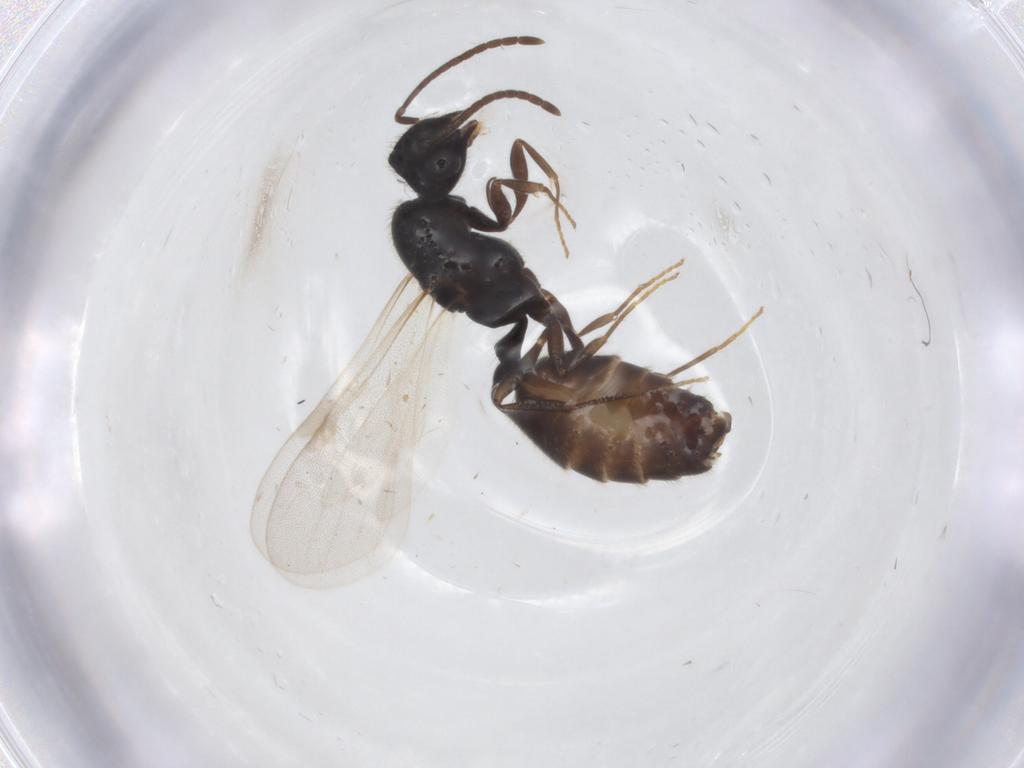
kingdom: Animalia
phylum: Arthropoda
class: Insecta
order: Hymenoptera
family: Formicidae
